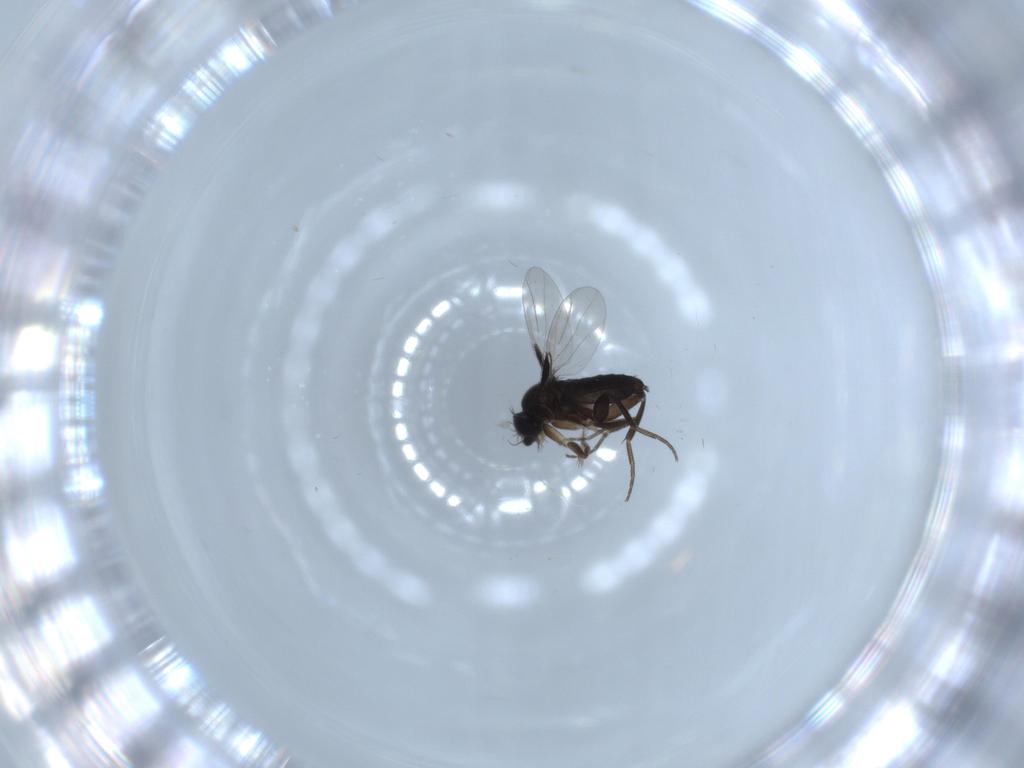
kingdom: Animalia
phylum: Arthropoda
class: Insecta
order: Diptera
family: Phoridae
